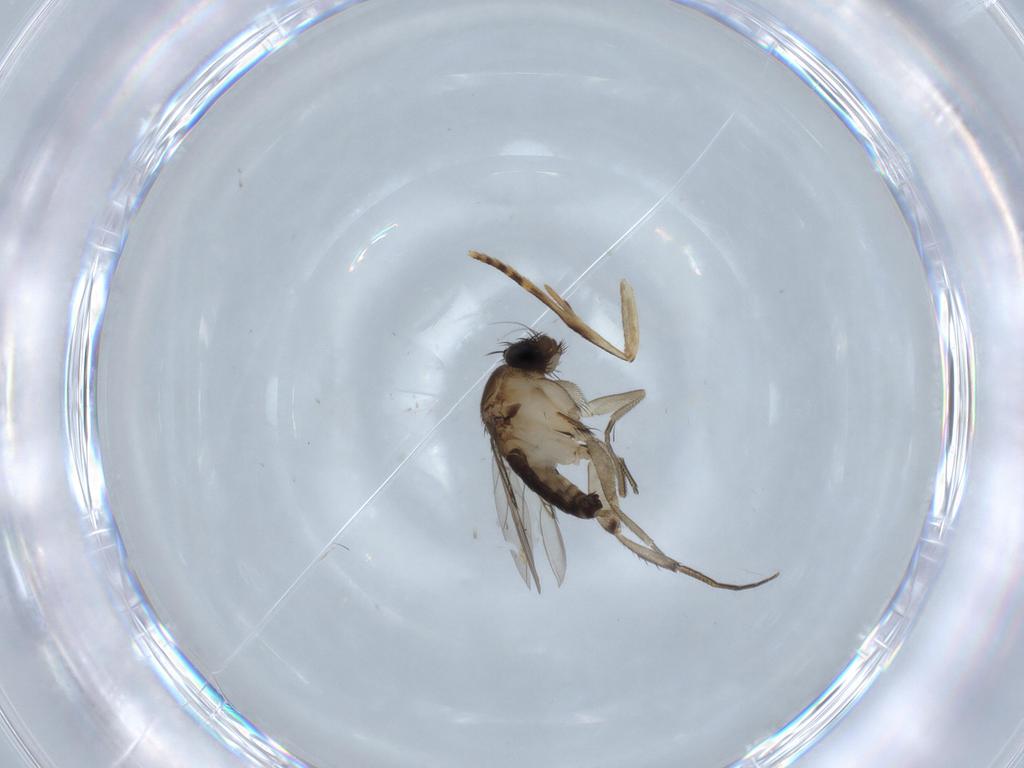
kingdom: Animalia
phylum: Arthropoda
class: Insecta
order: Diptera
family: Phoridae
